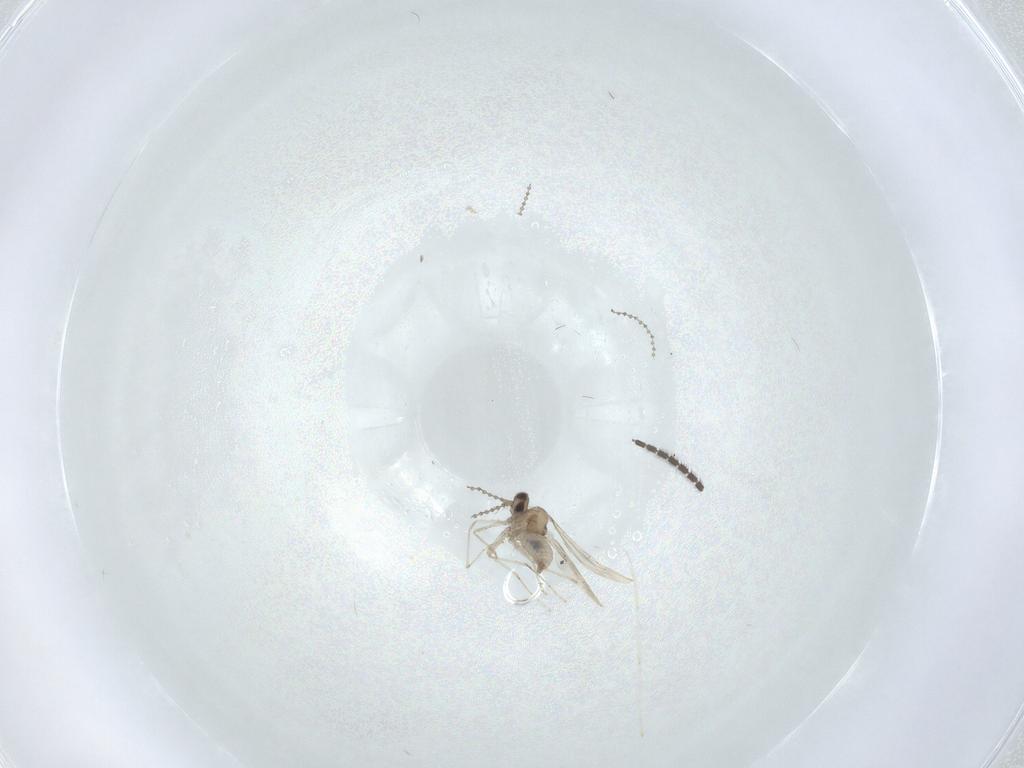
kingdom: Animalia
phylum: Arthropoda
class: Insecta
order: Diptera
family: Cecidomyiidae
